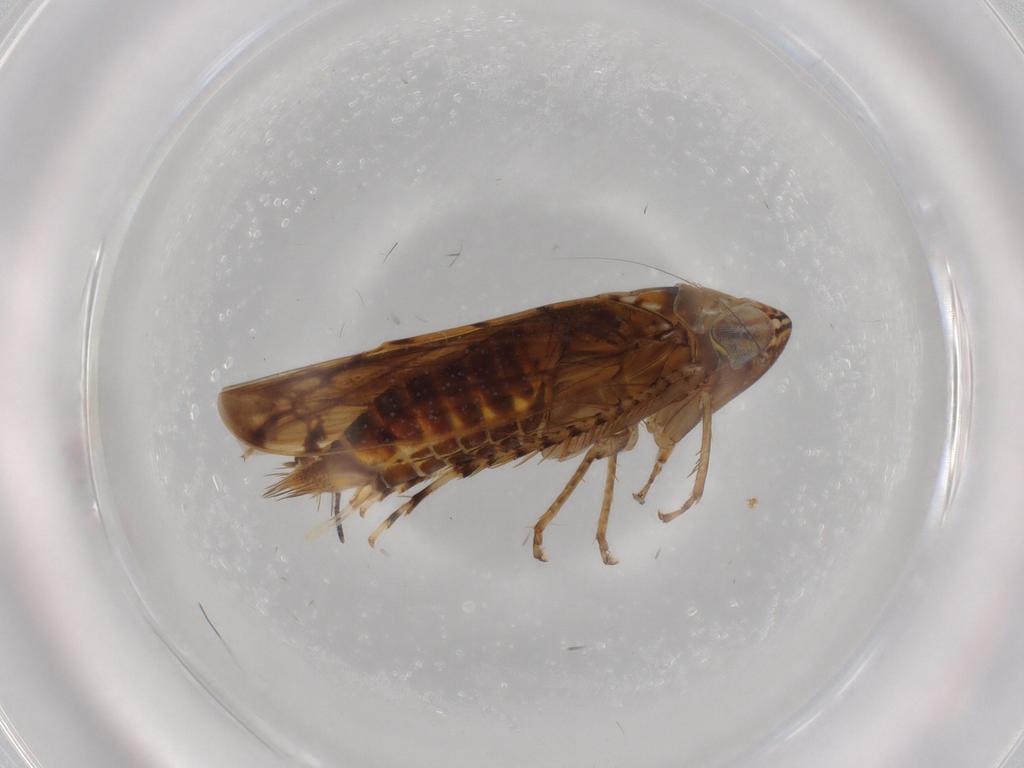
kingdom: Animalia
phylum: Arthropoda
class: Insecta
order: Hemiptera
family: Cicadellidae
